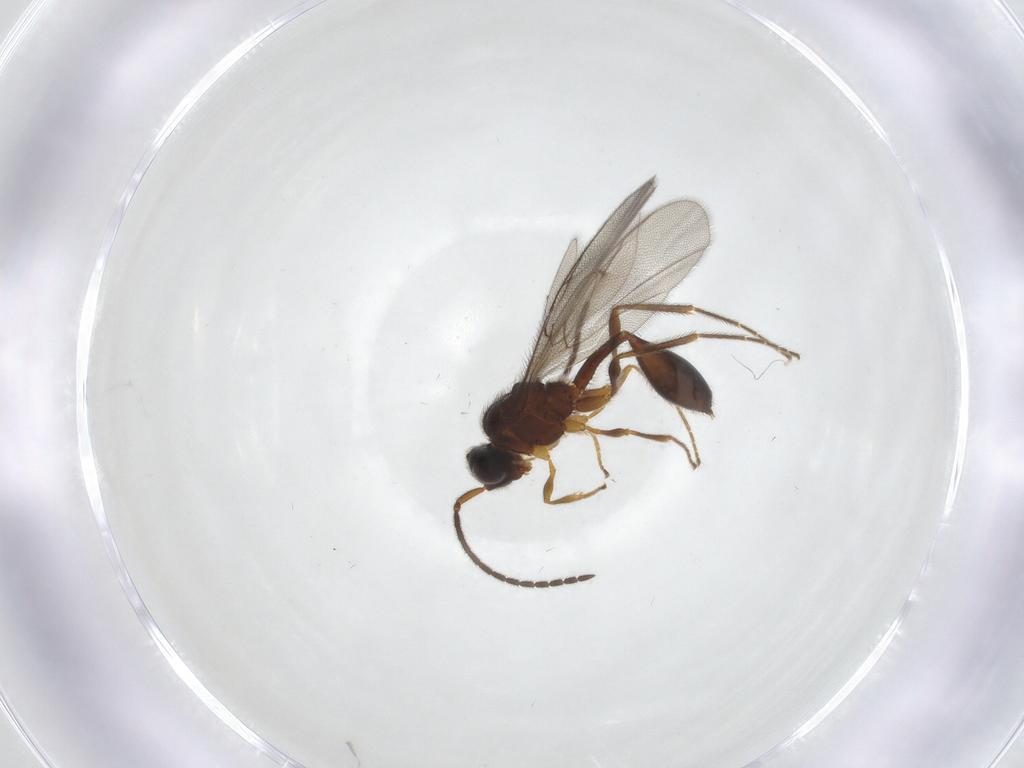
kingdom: Animalia
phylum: Arthropoda
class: Insecta
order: Hymenoptera
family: Diapriidae
